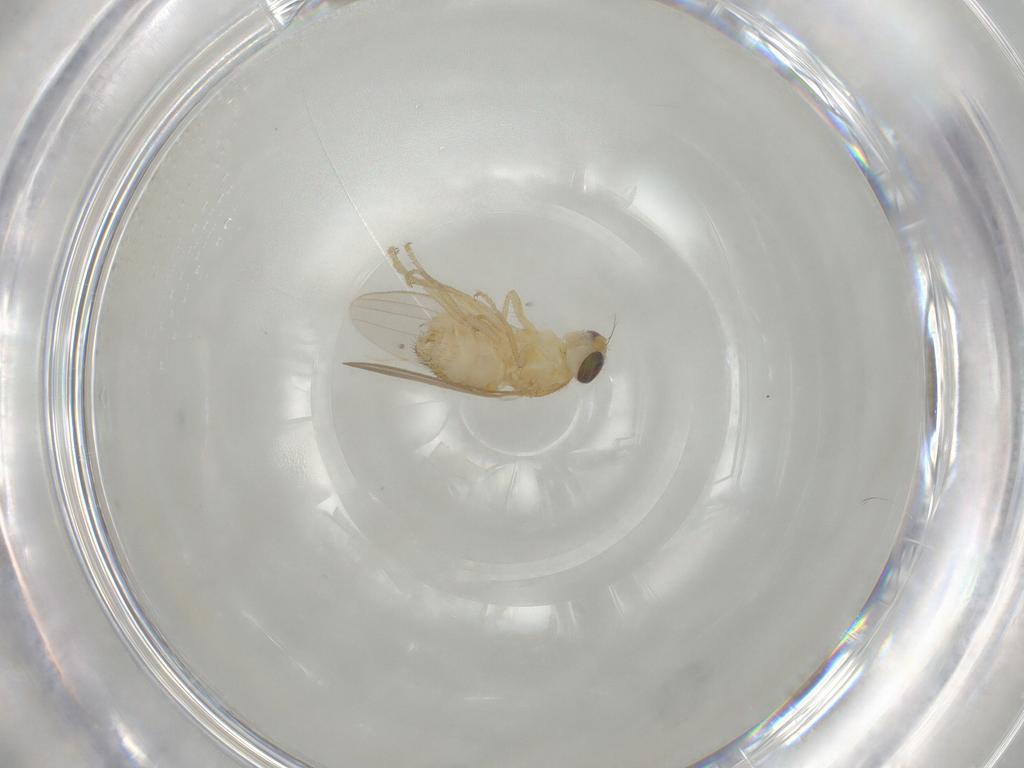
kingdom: Animalia
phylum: Arthropoda
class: Insecta
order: Diptera
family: Chyromyidae
